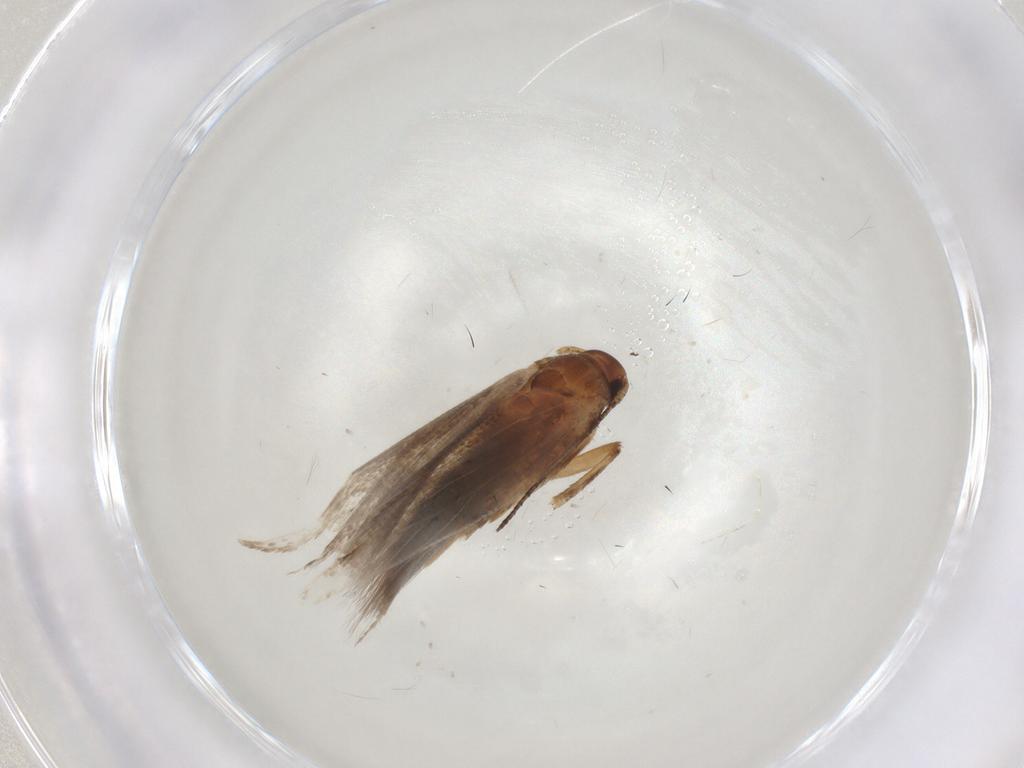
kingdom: Animalia
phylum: Arthropoda
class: Insecta
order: Lepidoptera
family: Gelechiidae
